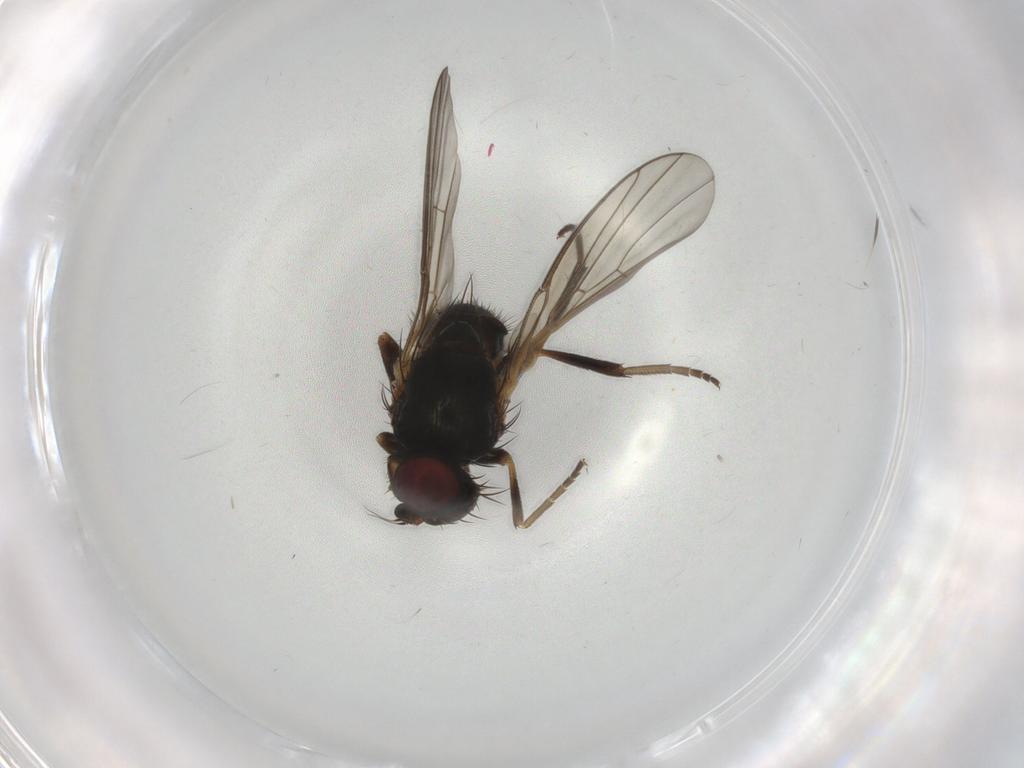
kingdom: Animalia
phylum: Arthropoda
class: Insecta
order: Diptera
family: Agromyzidae
